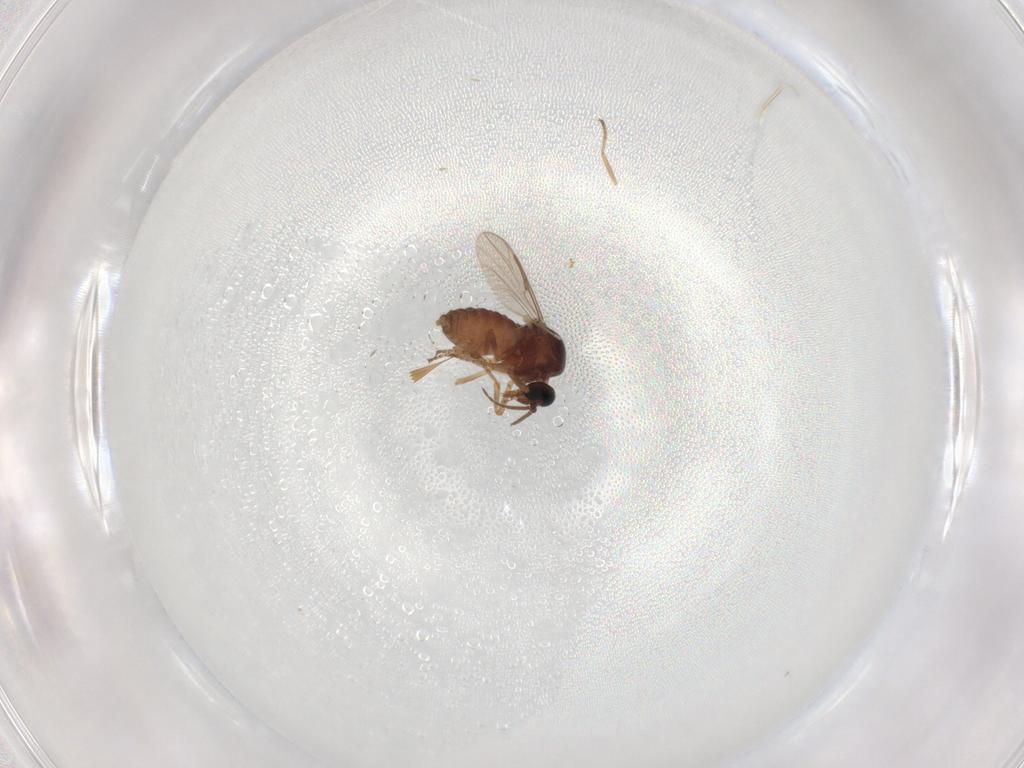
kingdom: Animalia
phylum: Arthropoda
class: Insecta
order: Diptera
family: Ceratopogonidae
